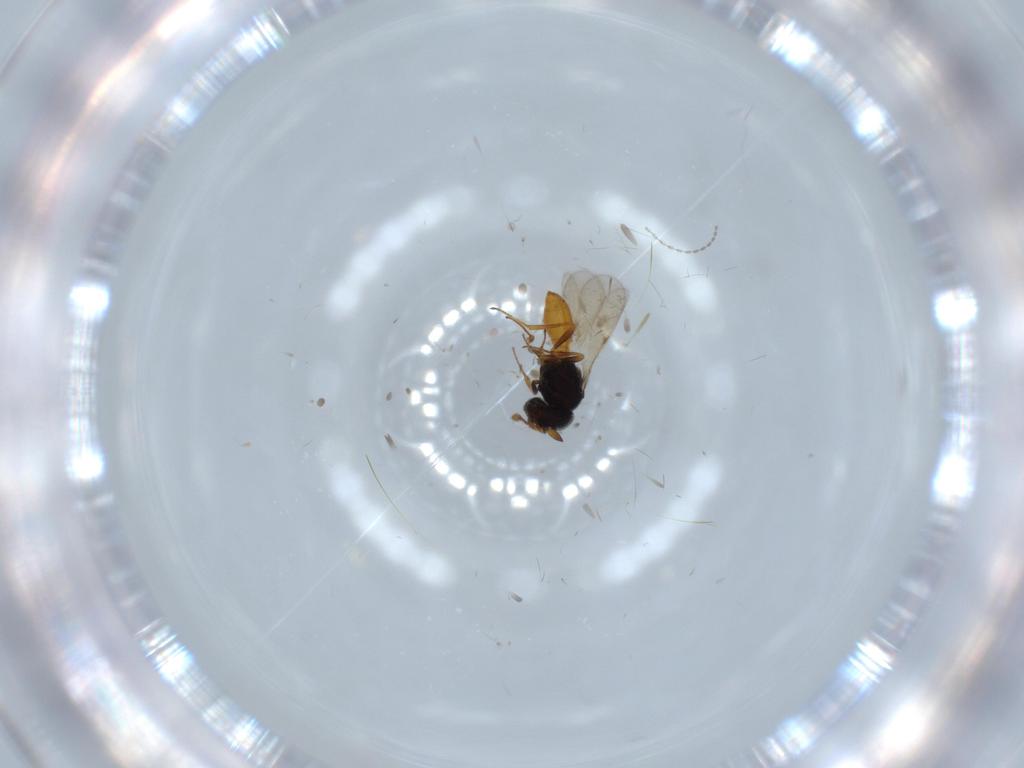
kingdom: Animalia
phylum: Arthropoda
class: Insecta
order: Hymenoptera
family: Scelionidae
